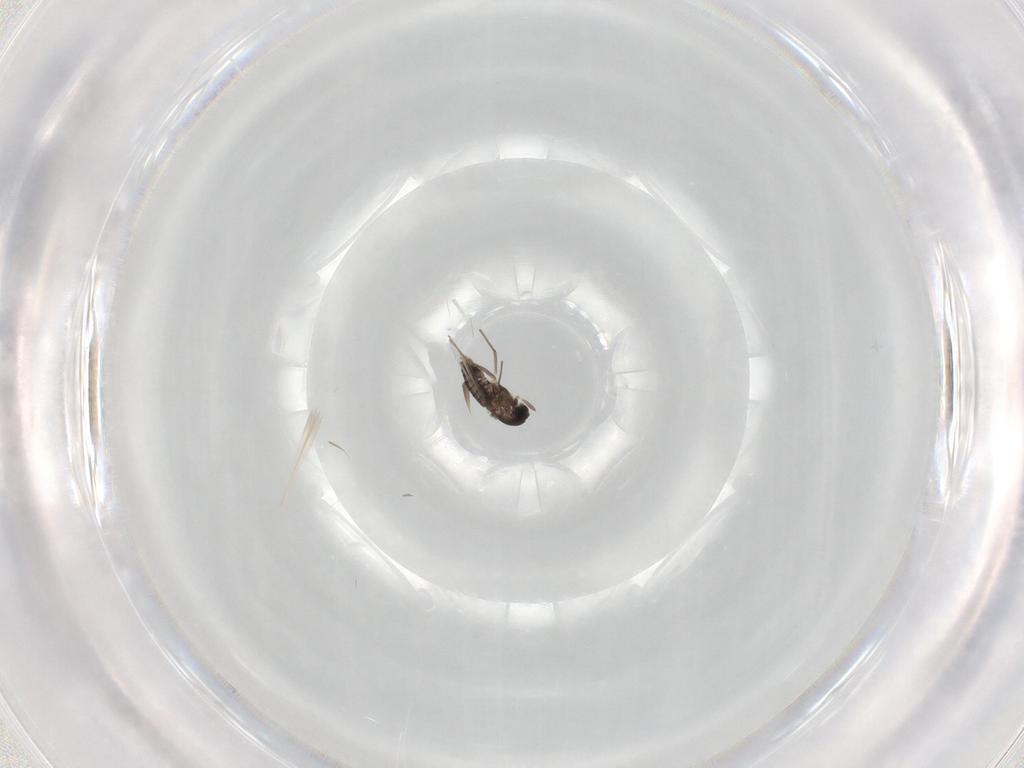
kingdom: Animalia
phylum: Arthropoda
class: Insecta
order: Diptera
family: Chironomidae
